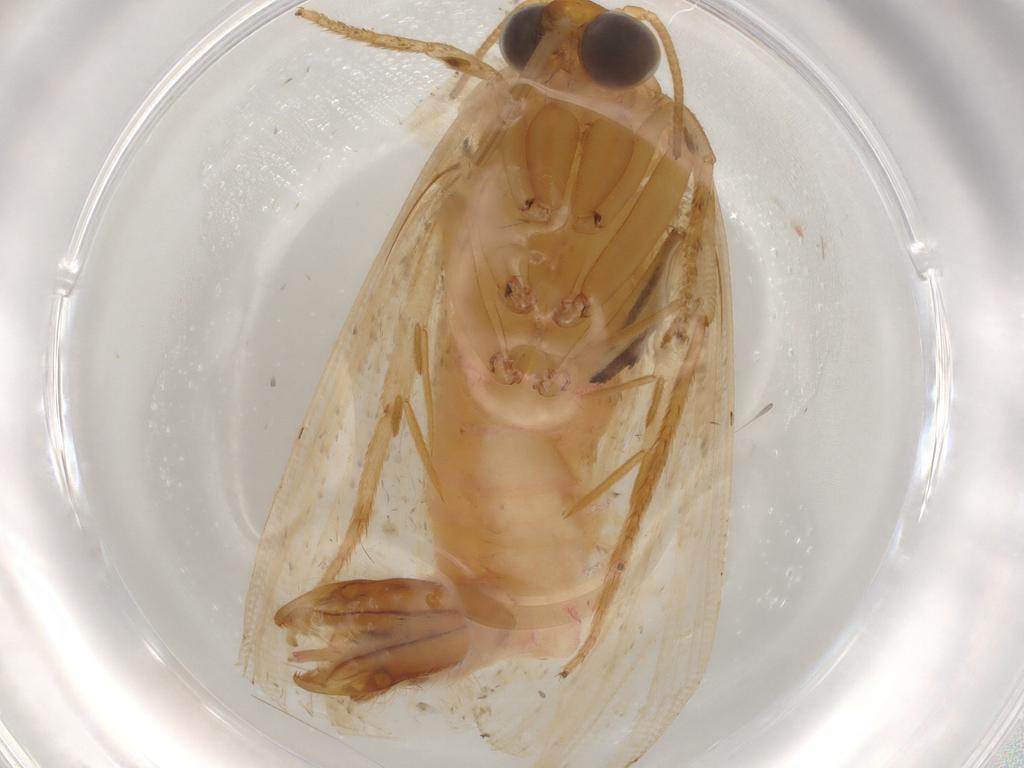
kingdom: Animalia
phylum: Arthropoda
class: Insecta
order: Lepidoptera
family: Noctuidae
